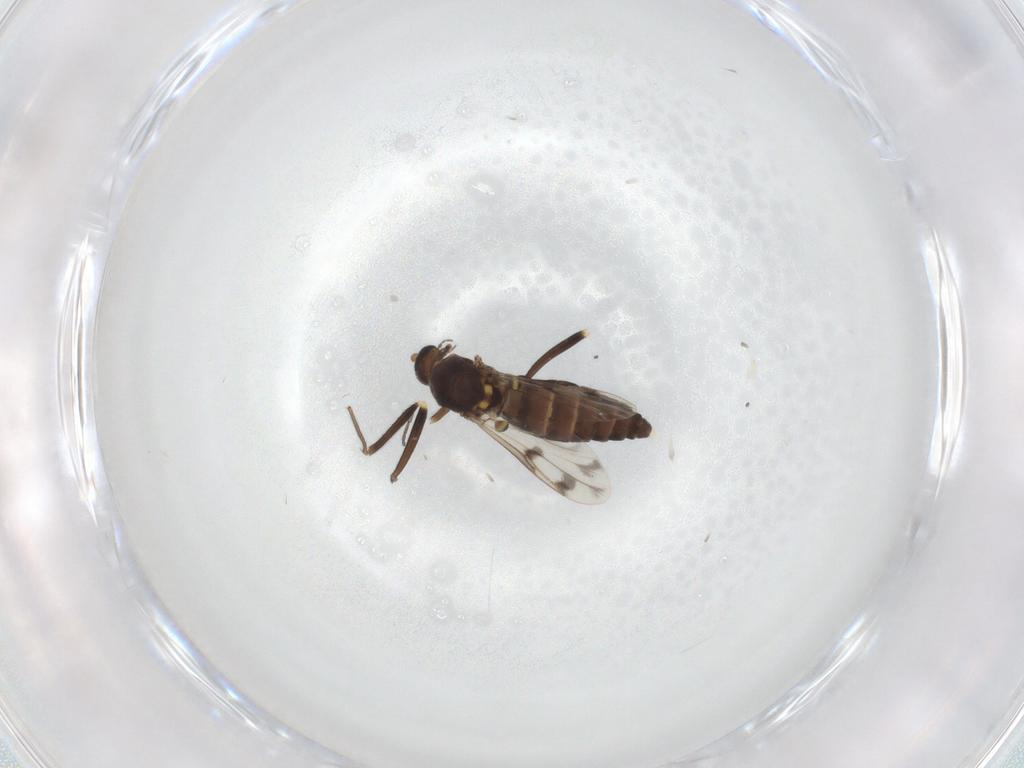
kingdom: Animalia
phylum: Arthropoda
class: Insecta
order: Diptera
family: Ceratopogonidae
